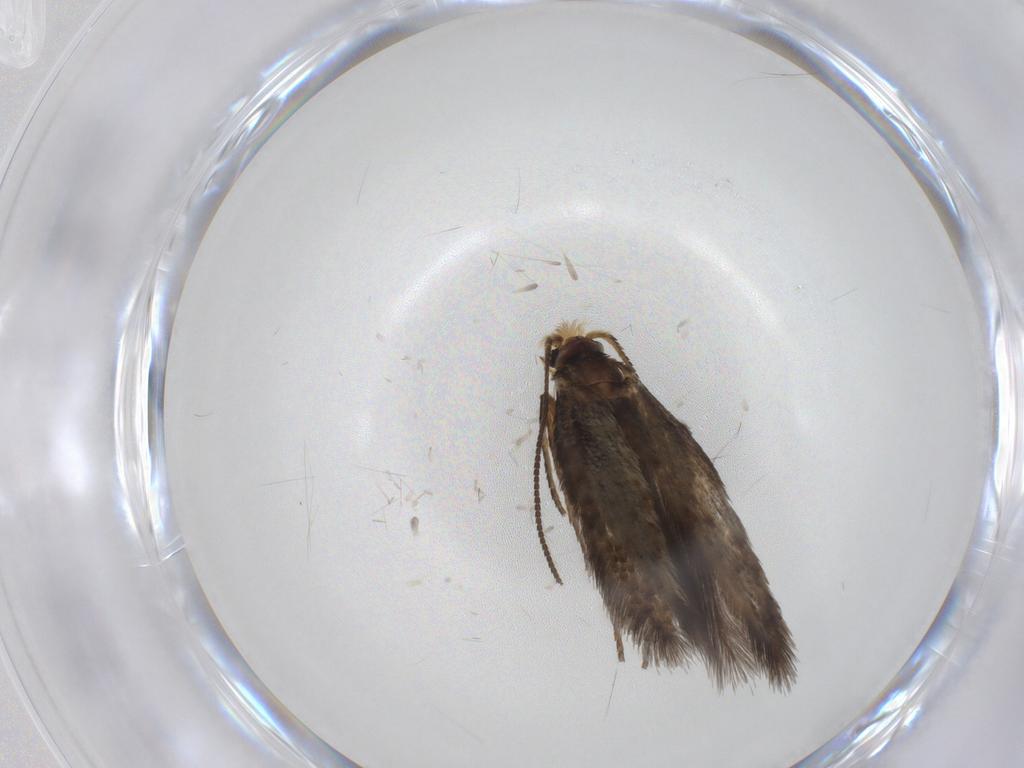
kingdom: Animalia
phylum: Arthropoda
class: Insecta
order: Lepidoptera
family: Nepticulidae
